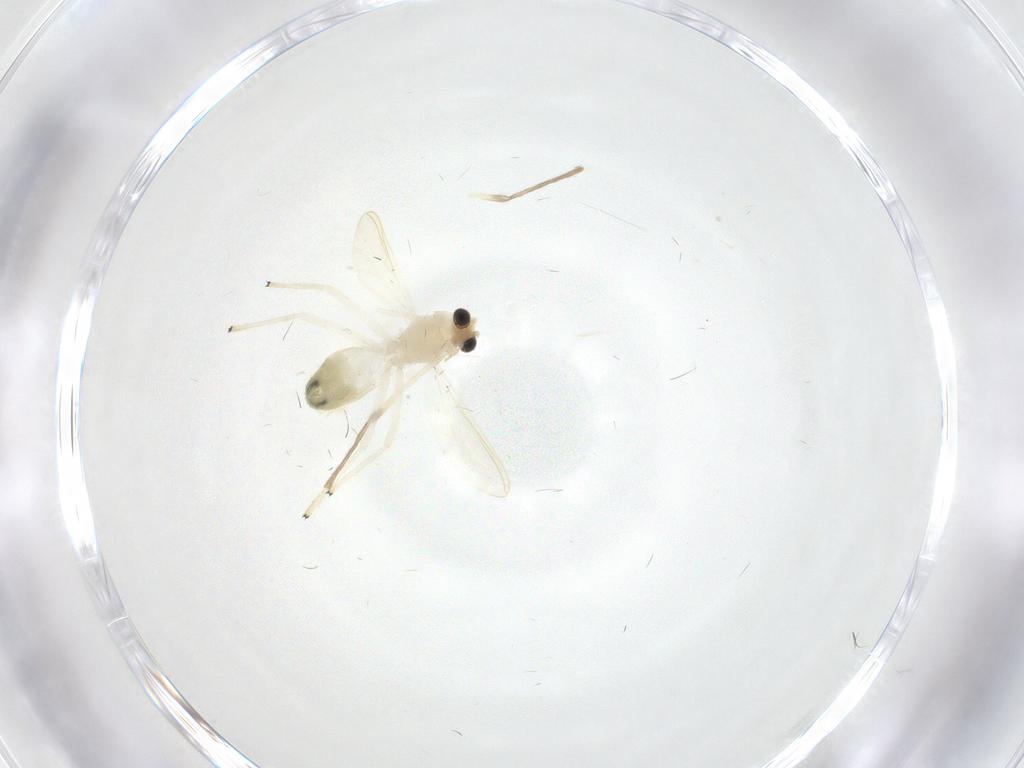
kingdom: Animalia
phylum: Arthropoda
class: Insecta
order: Diptera
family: Chironomidae
